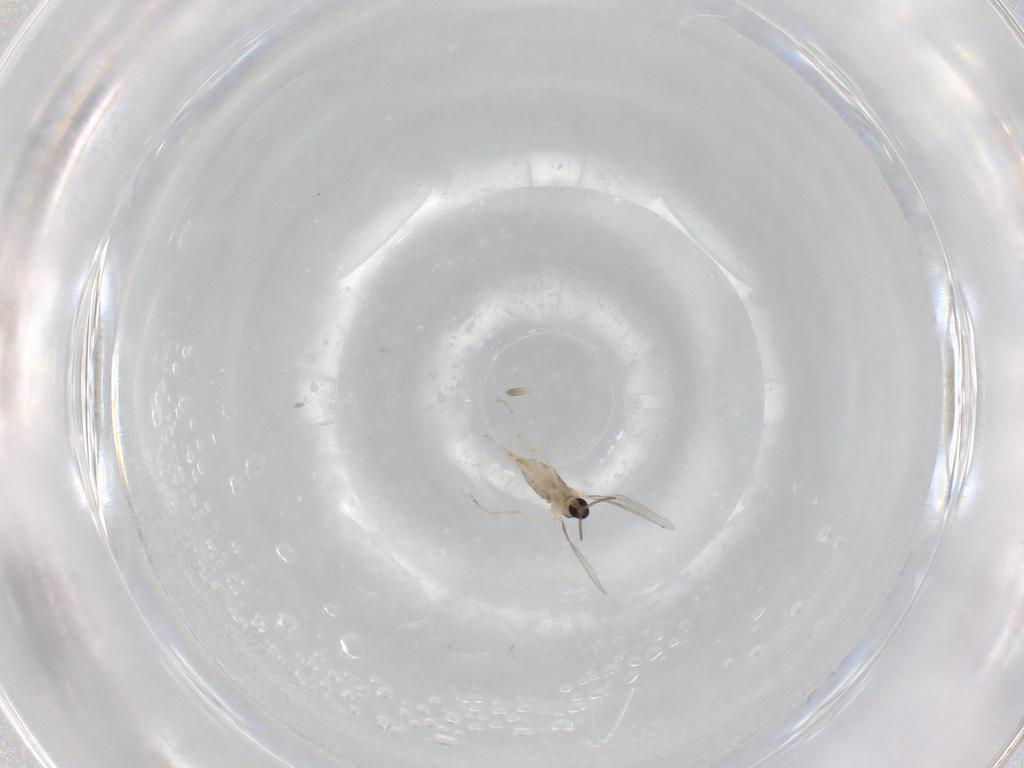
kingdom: Animalia
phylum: Arthropoda
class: Insecta
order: Diptera
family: Cecidomyiidae
